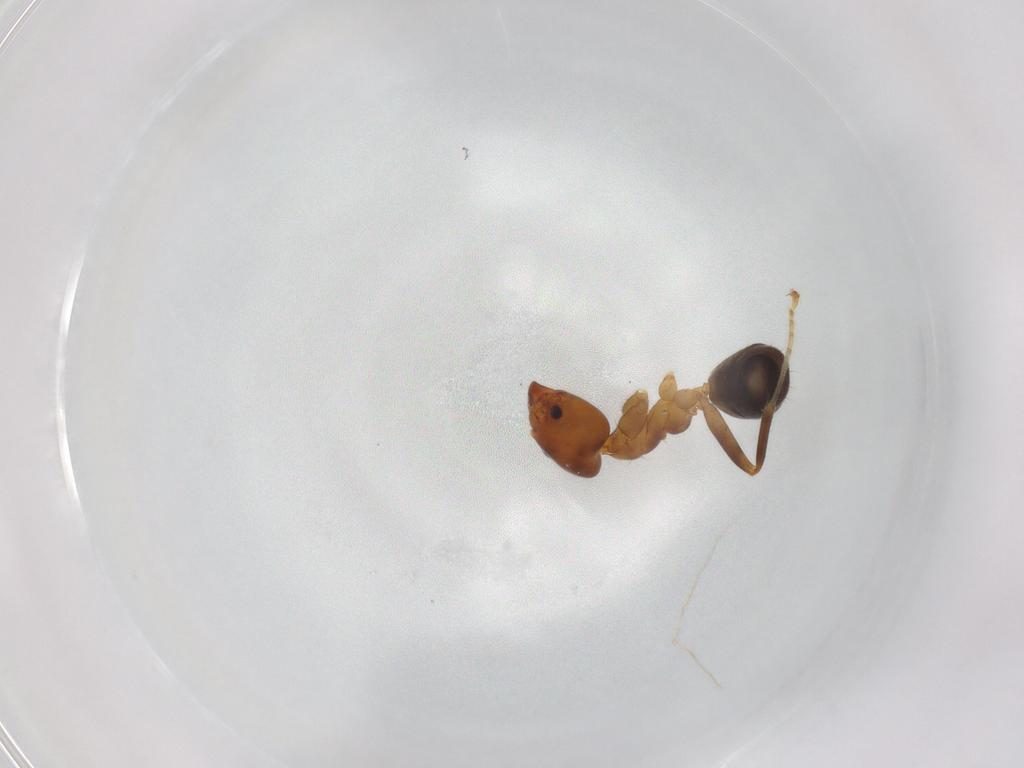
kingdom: Animalia
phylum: Arthropoda
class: Insecta
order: Hymenoptera
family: Formicidae
